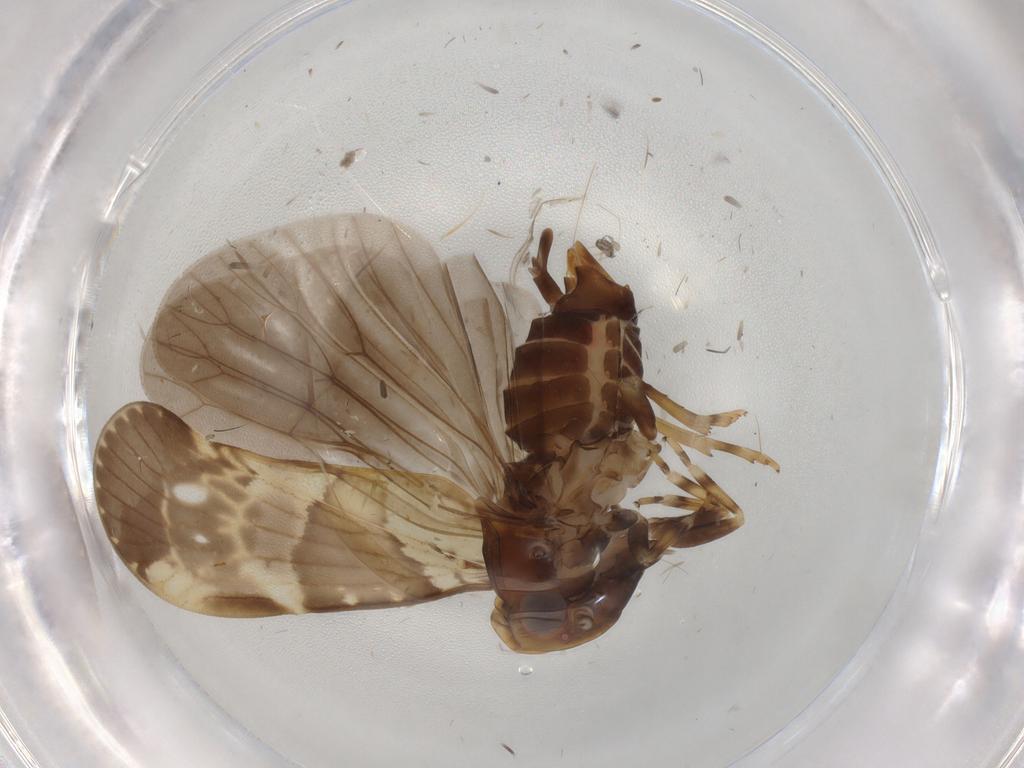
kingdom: Animalia
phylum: Arthropoda
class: Insecta
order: Hemiptera
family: Cixiidae
